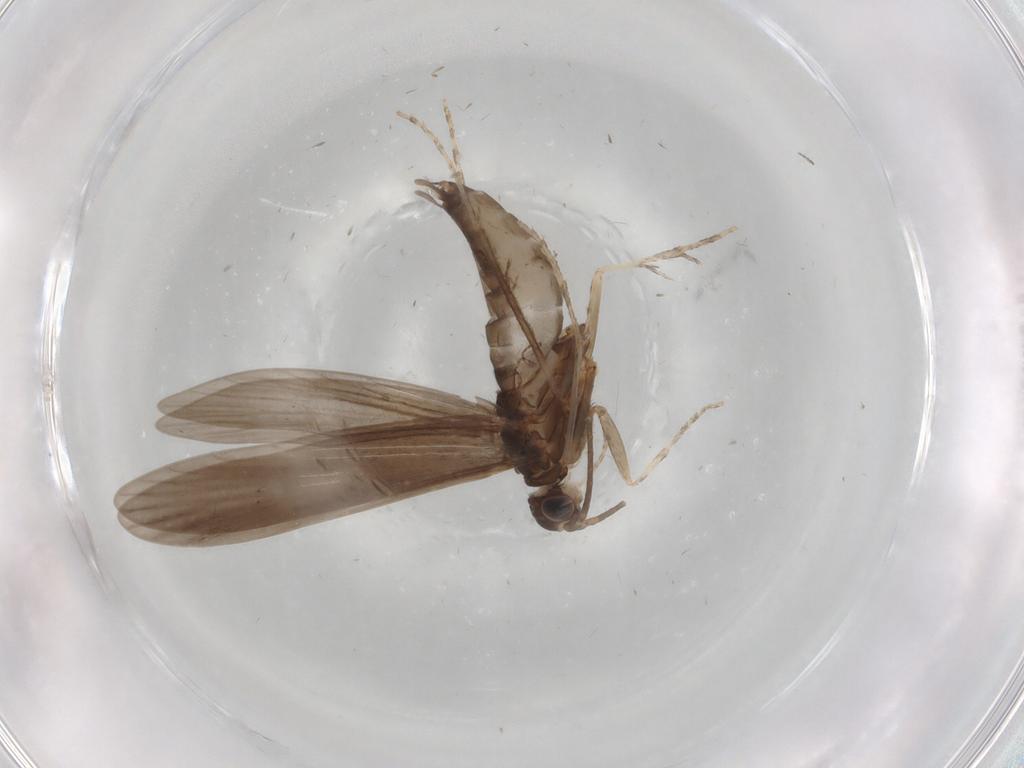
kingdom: Animalia
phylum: Arthropoda
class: Insecta
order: Trichoptera
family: Xiphocentronidae
